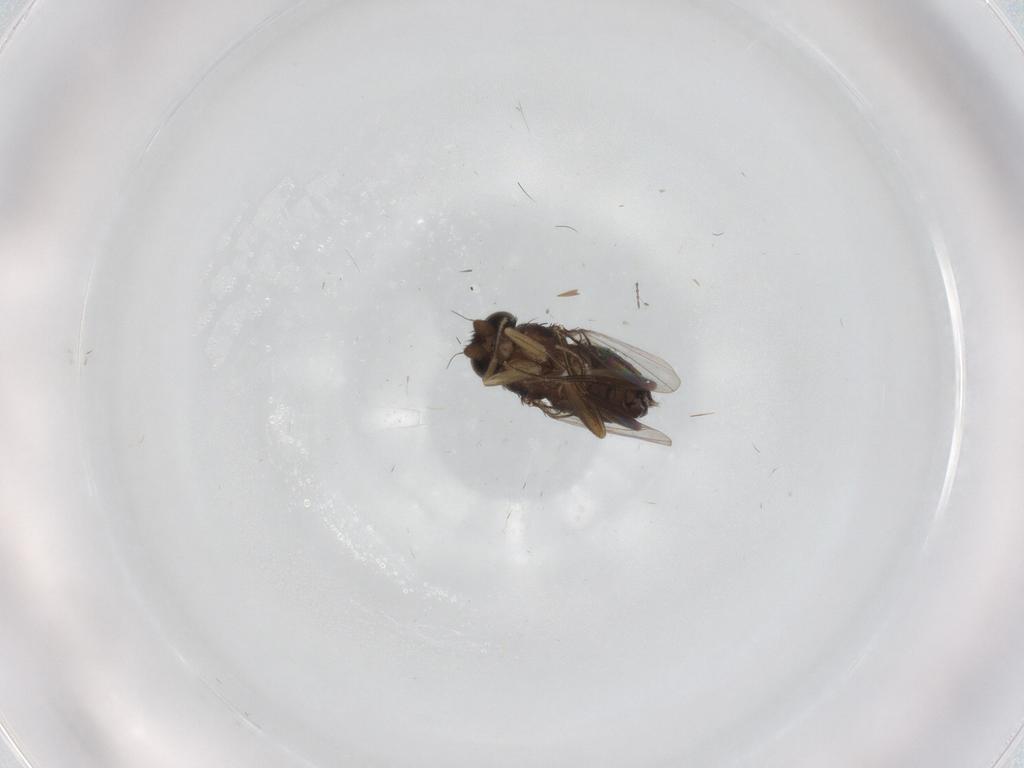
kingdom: Animalia
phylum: Arthropoda
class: Insecta
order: Diptera
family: Phoridae
